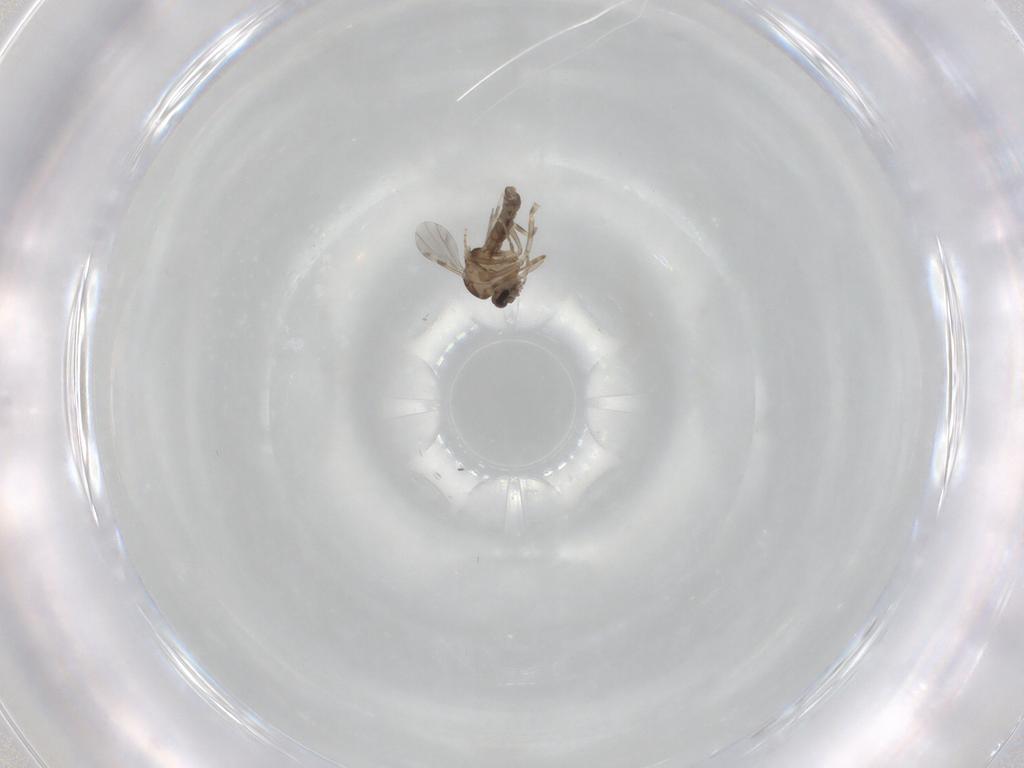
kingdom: Animalia
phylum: Arthropoda
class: Insecta
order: Diptera
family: Ceratopogonidae
